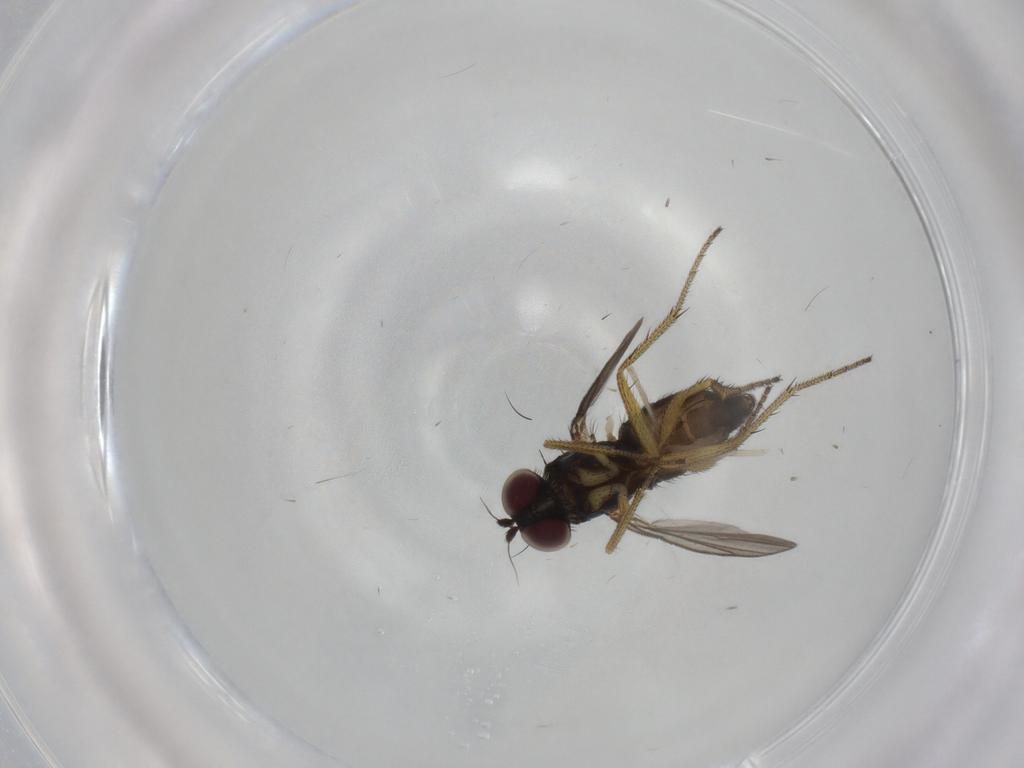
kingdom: Animalia
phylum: Arthropoda
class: Insecta
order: Diptera
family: Dolichopodidae
